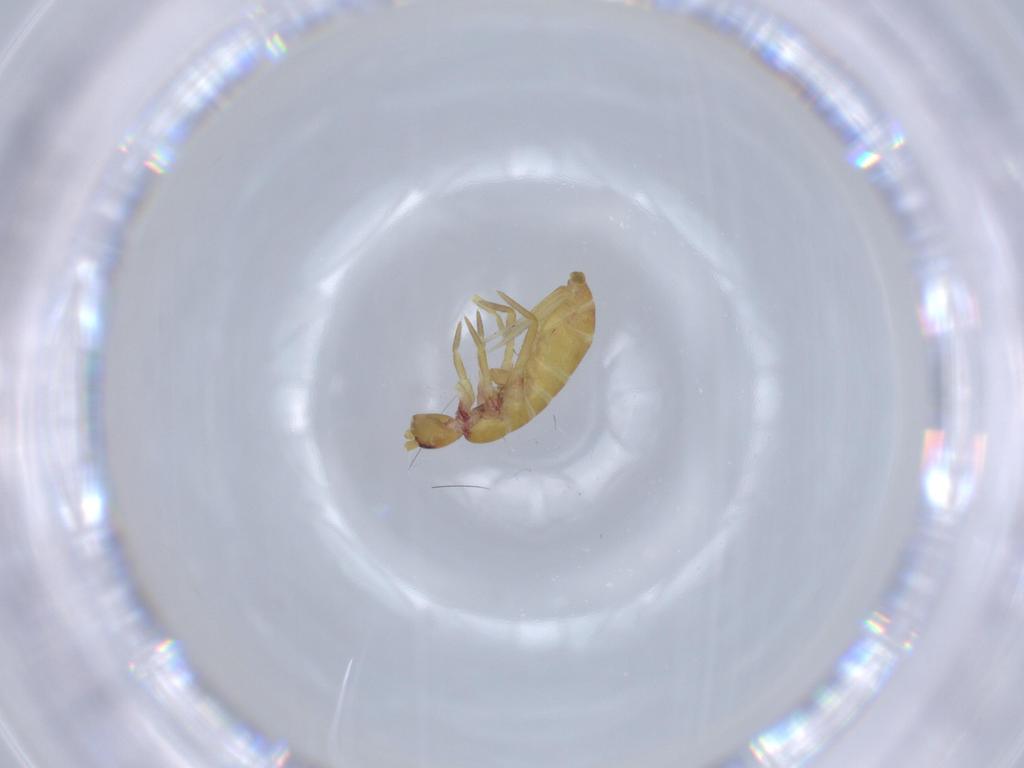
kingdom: Animalia
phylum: Arthropoda
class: Collembola
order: Entomobryomorpha
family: Tomoceridae
